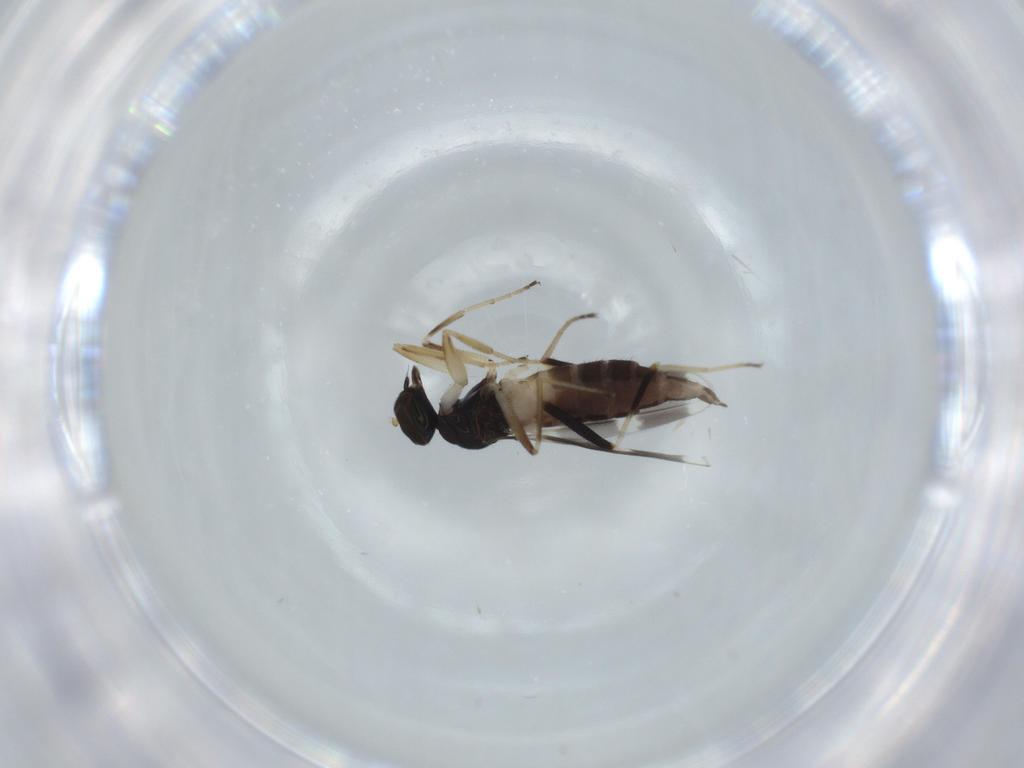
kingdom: Animalia
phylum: Arthropoda
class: Insecta
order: Diptera
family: Hybotidae
